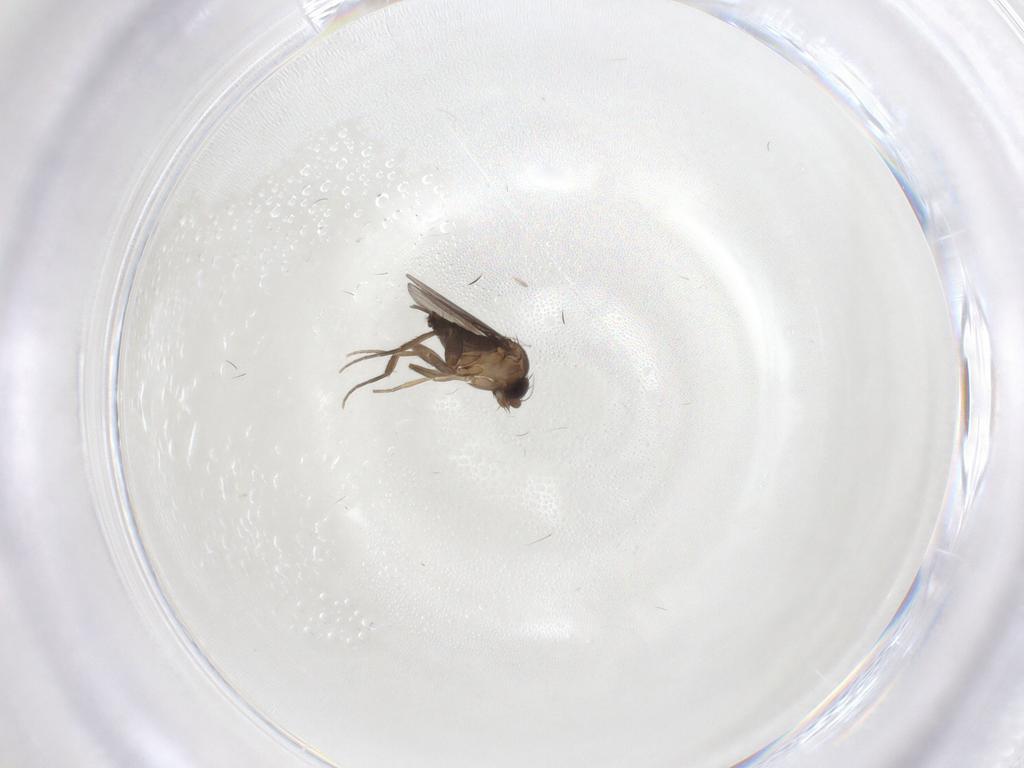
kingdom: Animalia
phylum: Arthropoda
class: Insecta
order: Diptera
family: Phoridae
